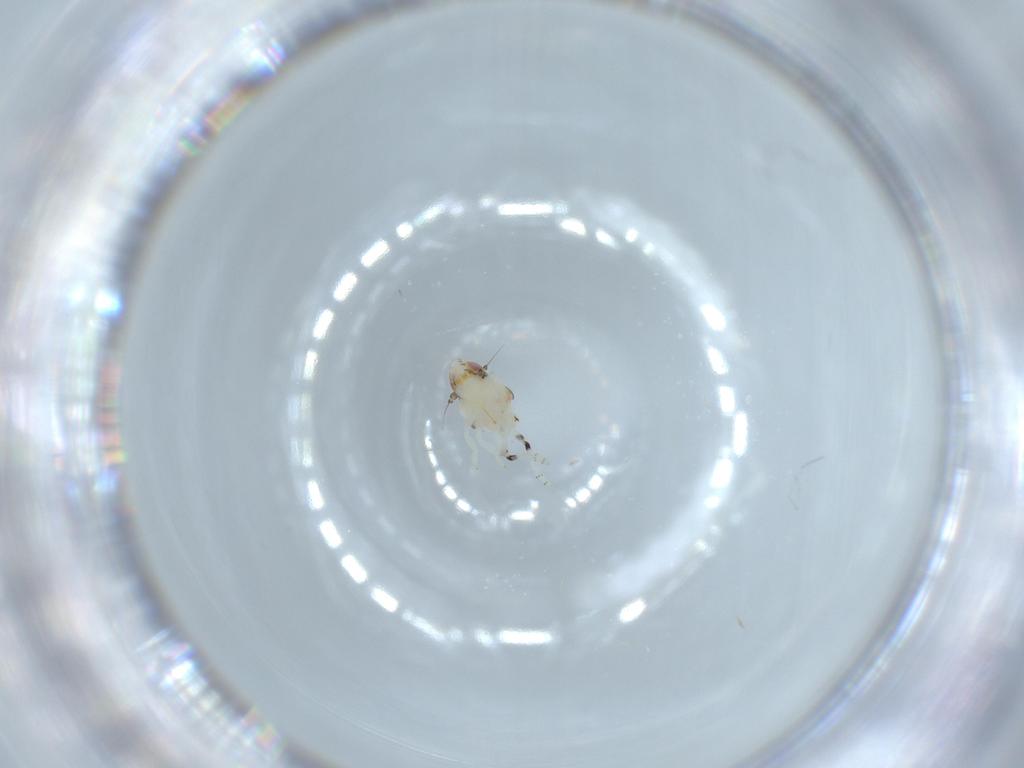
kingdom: Animalia
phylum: Arthropoda
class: Insecta
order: Hemiptera
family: Nogodinidae
